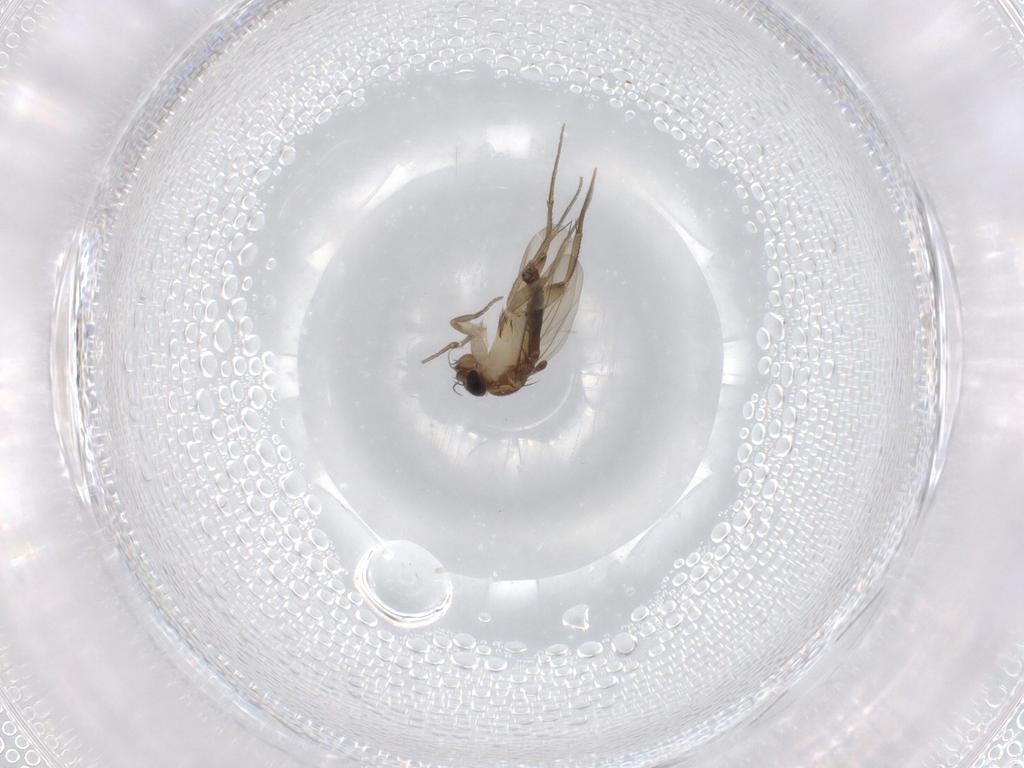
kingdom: Animalia
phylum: Arthropoda
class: Insecta
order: Diptera
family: Phoridae
